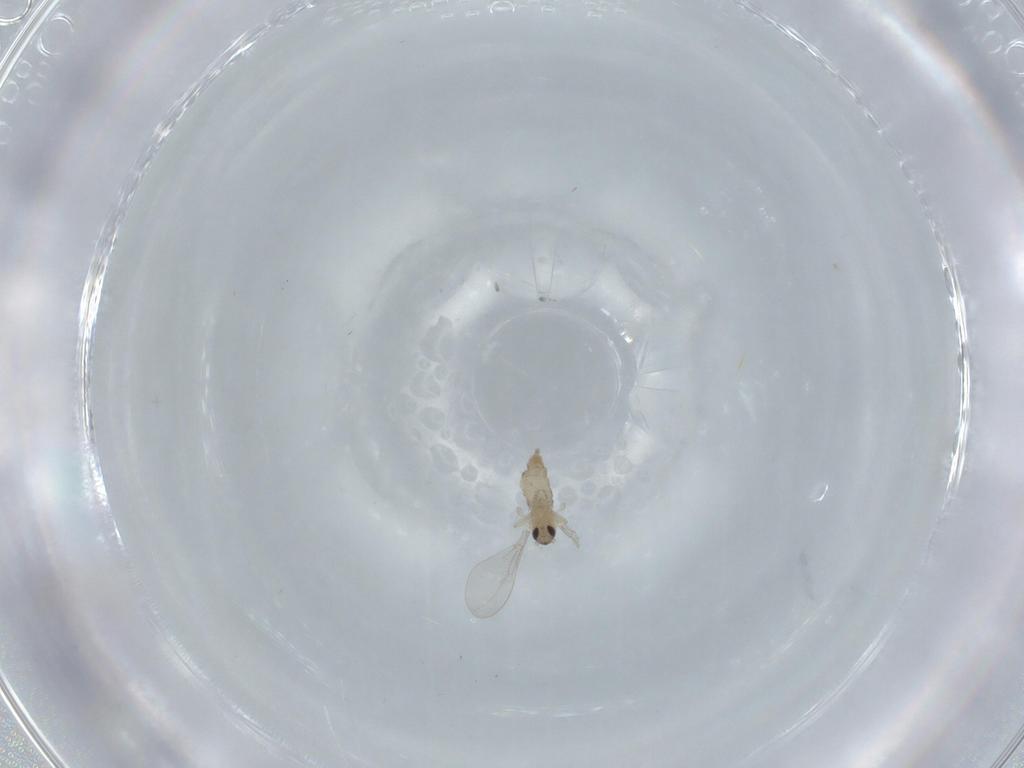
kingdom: Animalia
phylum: Arthropoda
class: Insecta
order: Diptera
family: Cecidomyiidae
